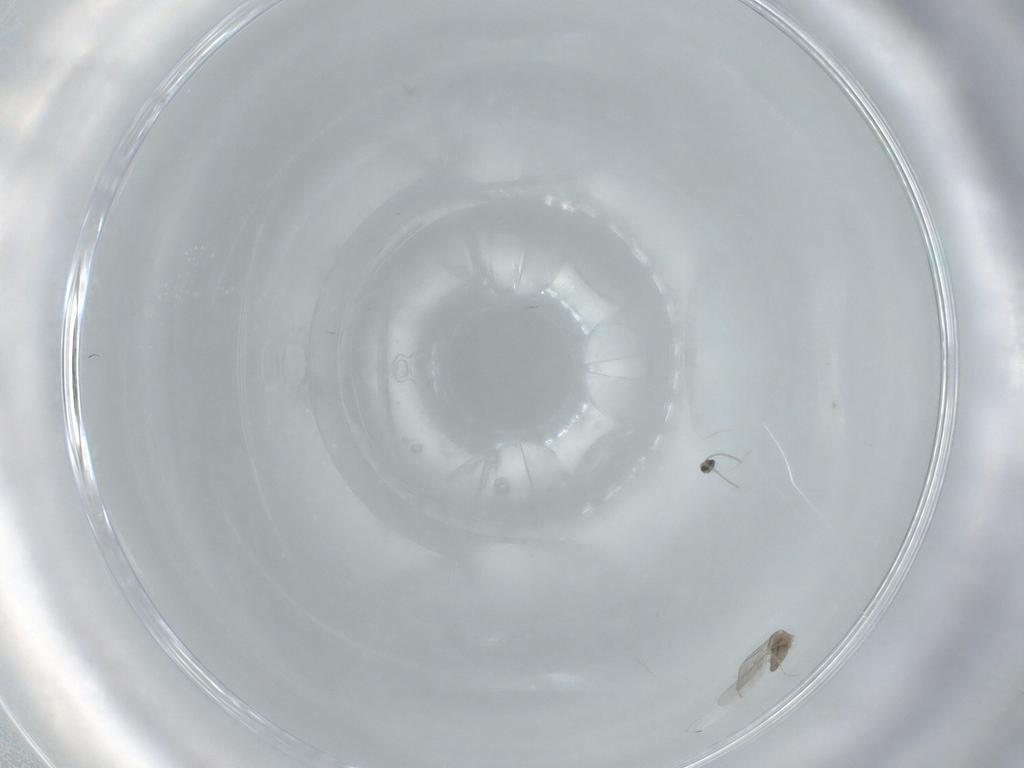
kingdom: Animalia
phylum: Arthropoda
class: Insecta
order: Diptera
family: Cecidomyiidae
